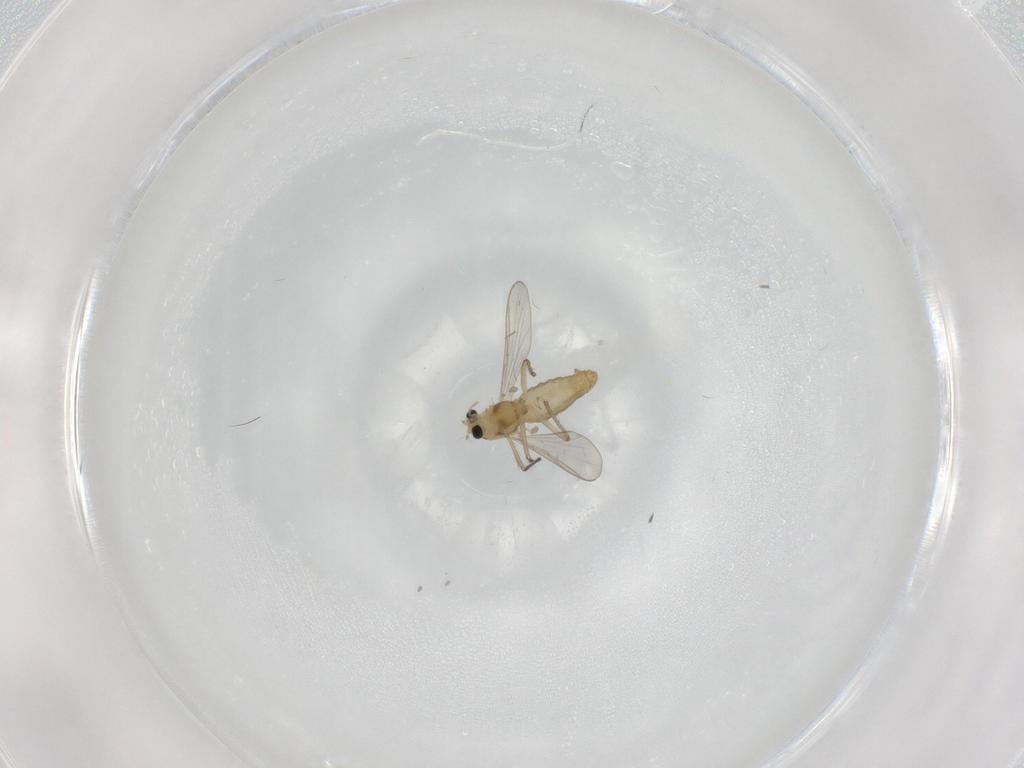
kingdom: Animalia
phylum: Arthropoda
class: Insecta
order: Diptera
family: Chironomidae
